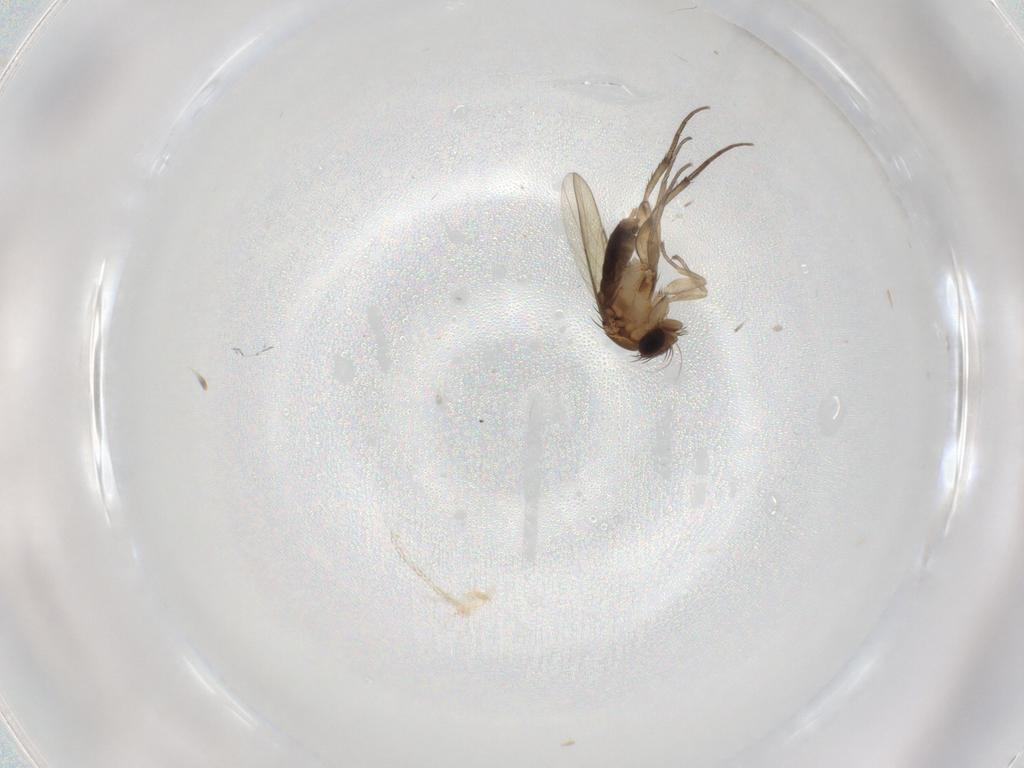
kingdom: Animalia
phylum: Arthropoda
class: Insecta
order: Diptera
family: Phoridae
